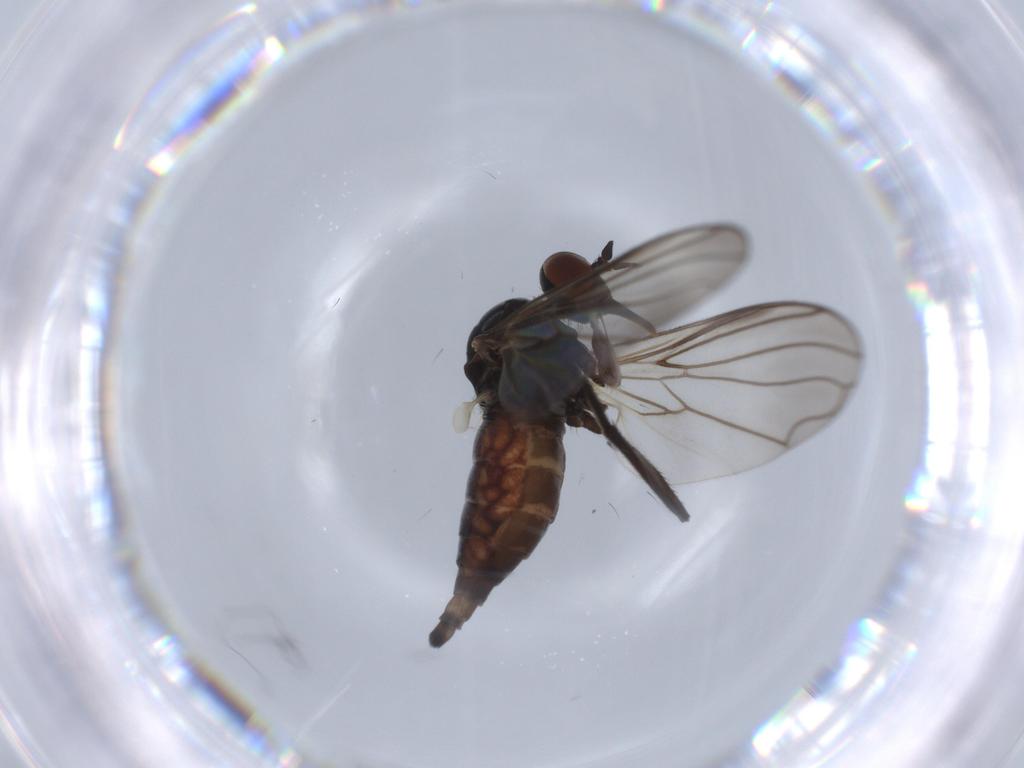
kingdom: Animalia
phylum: Arthropoda
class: Insecta
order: Diptera
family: Empididae
